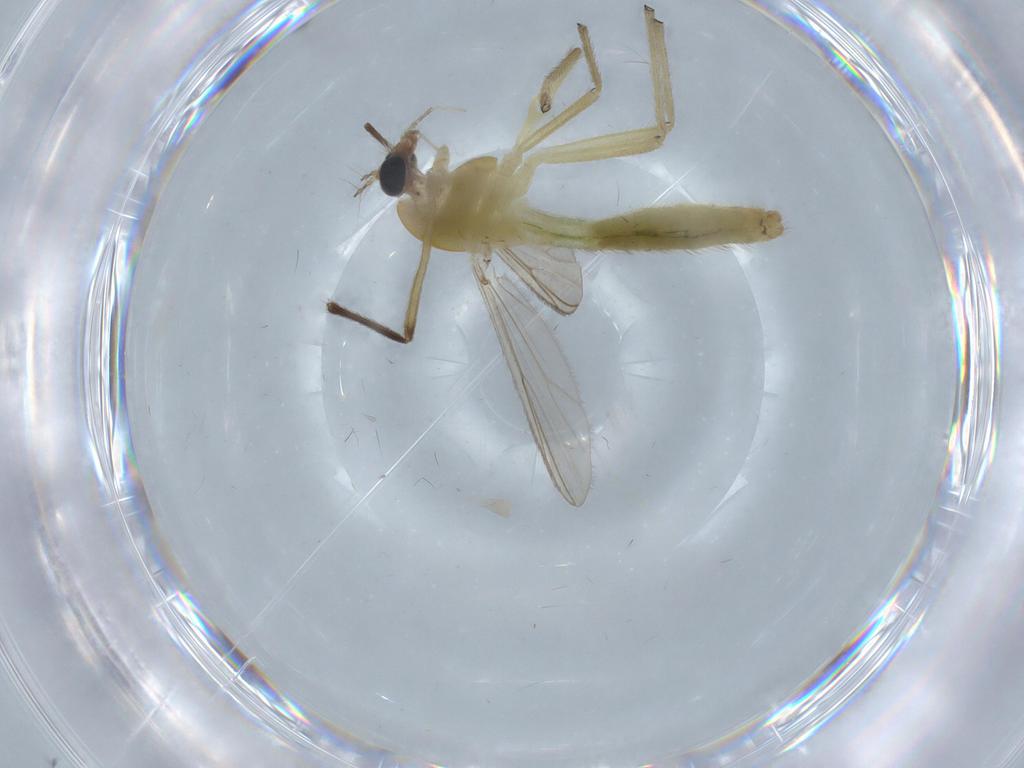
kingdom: Animalia
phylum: Arthropoda
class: Insecta
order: Diptera
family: Chironomidae
